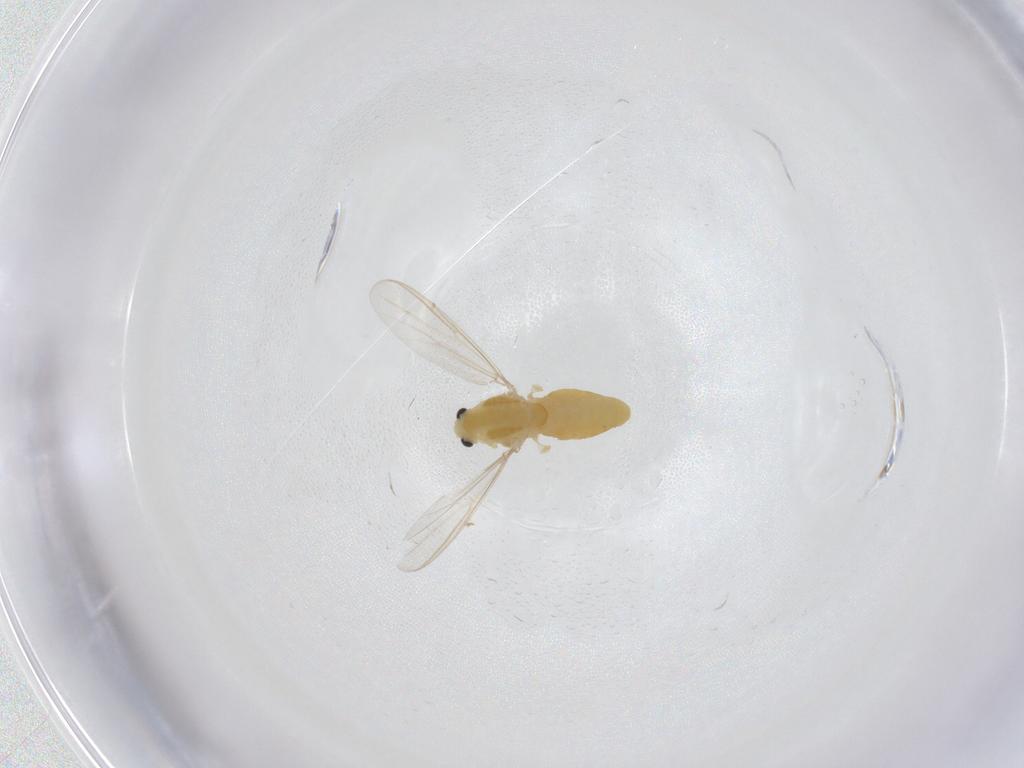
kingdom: Animalia
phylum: Arthropoda
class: Insecta
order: Diptera
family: Chironomidae
